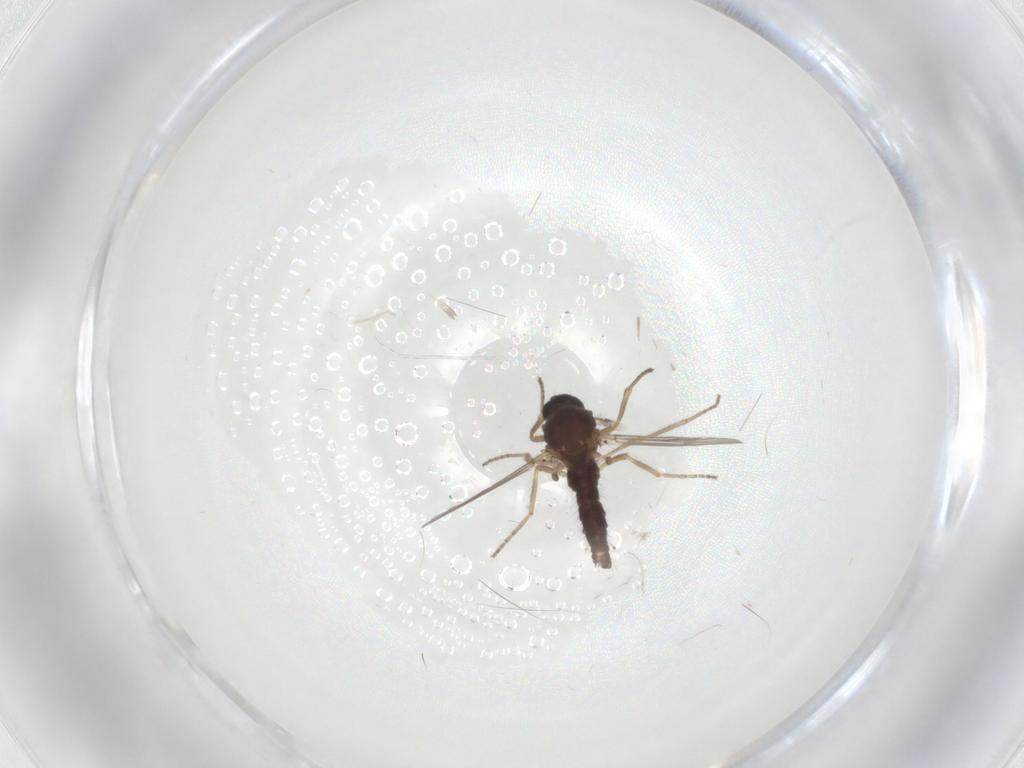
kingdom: Animalia
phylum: Arthropoda
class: Insecta
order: Diptera
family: Ceratopogonidae
